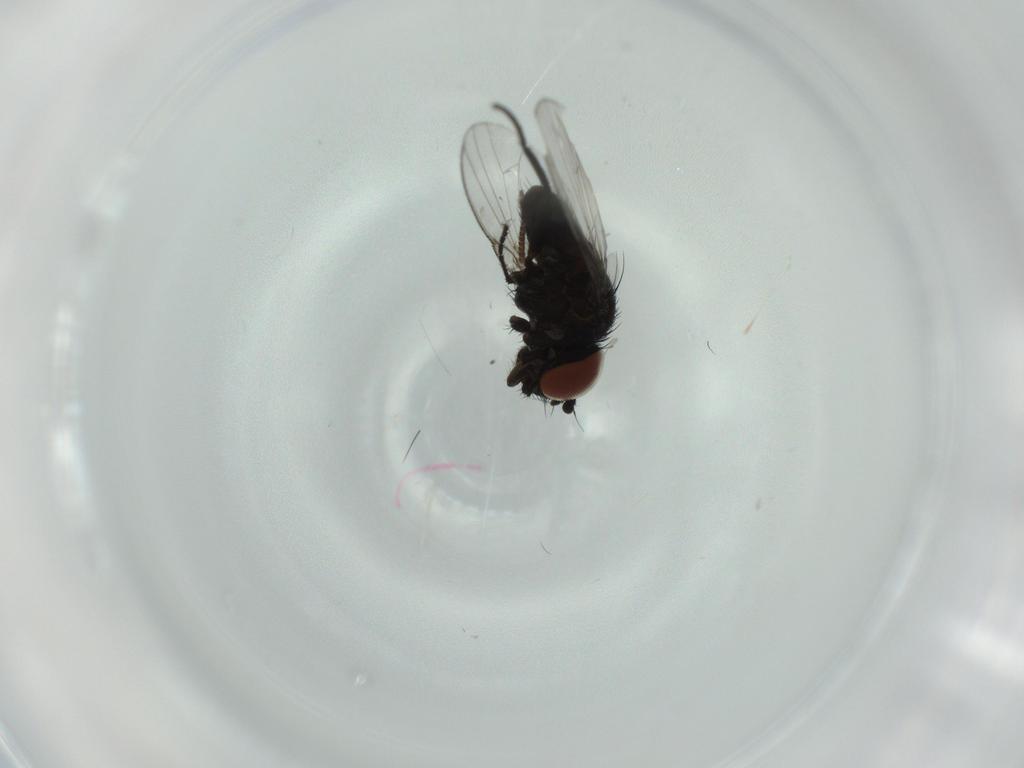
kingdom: Animalia
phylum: Arthropoda
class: Insecta
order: Diptera
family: Milichiidae
